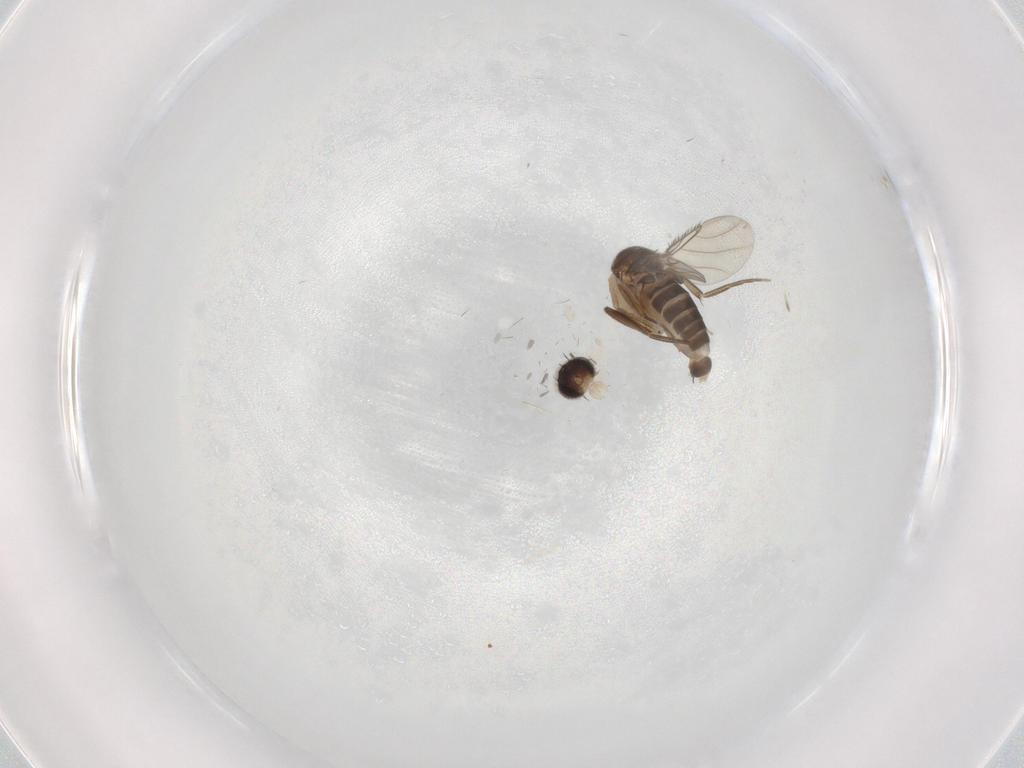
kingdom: Animalia
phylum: Arthropoda
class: Insecta
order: Diptera
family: Phoridae
